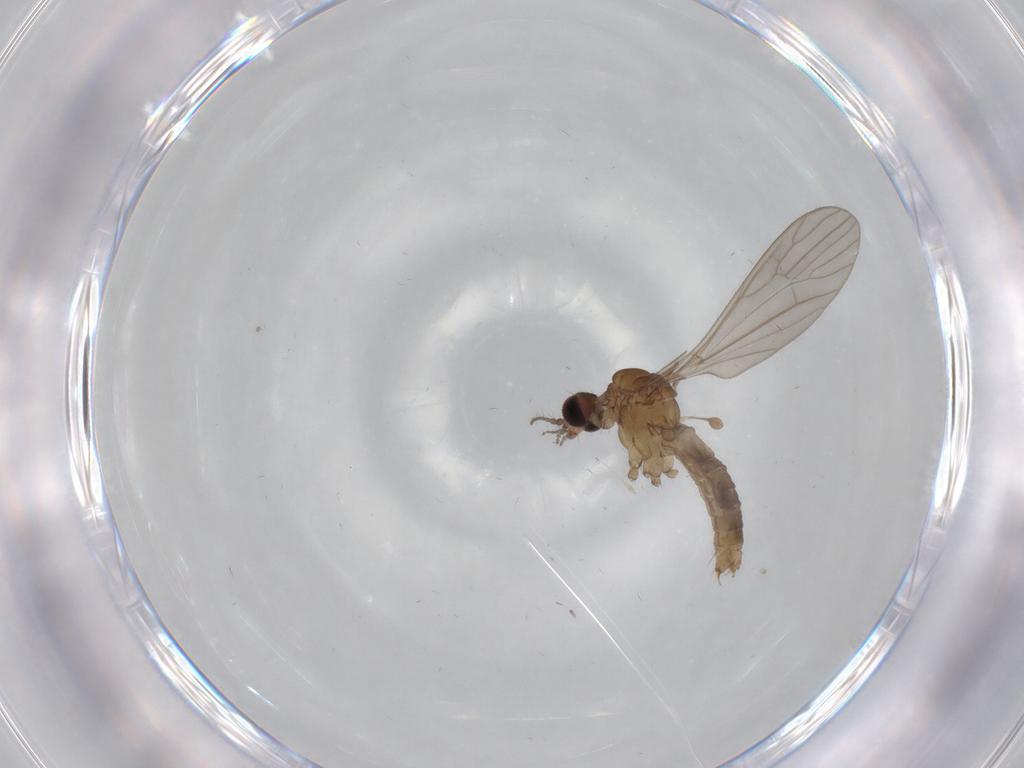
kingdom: Animalia
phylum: Arthropoda
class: Insecta
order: Diptera
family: Limoniidae
